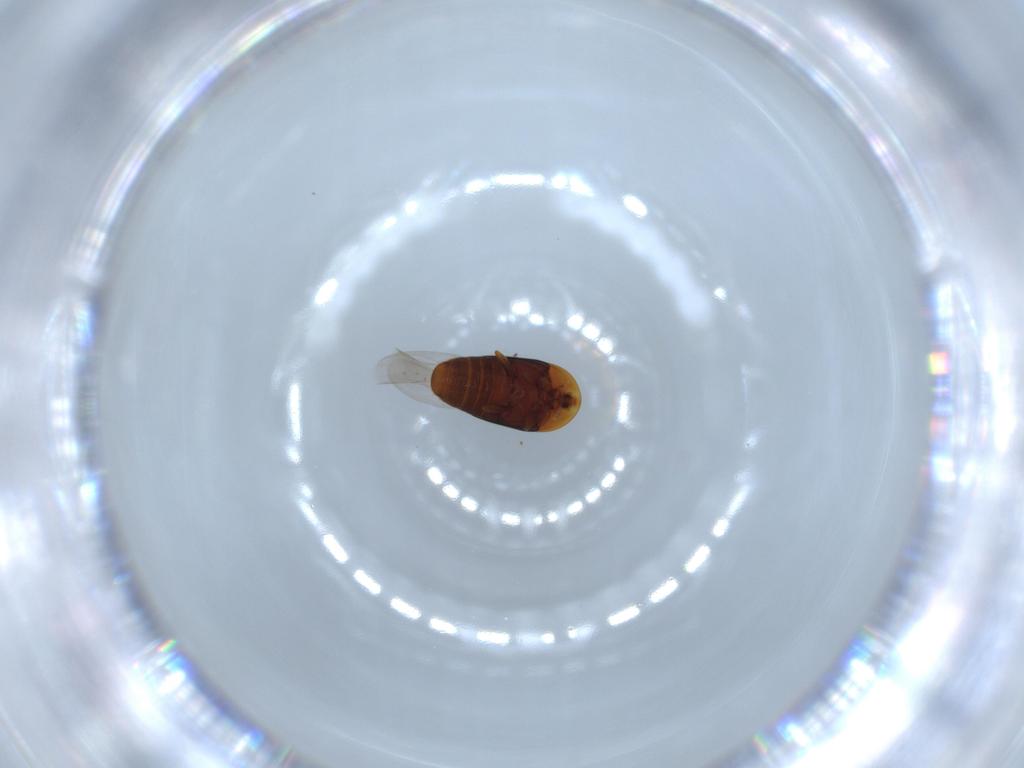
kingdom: Animalia
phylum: Arthropoda
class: Insecta
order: Coleoptera
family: Corylophidae
